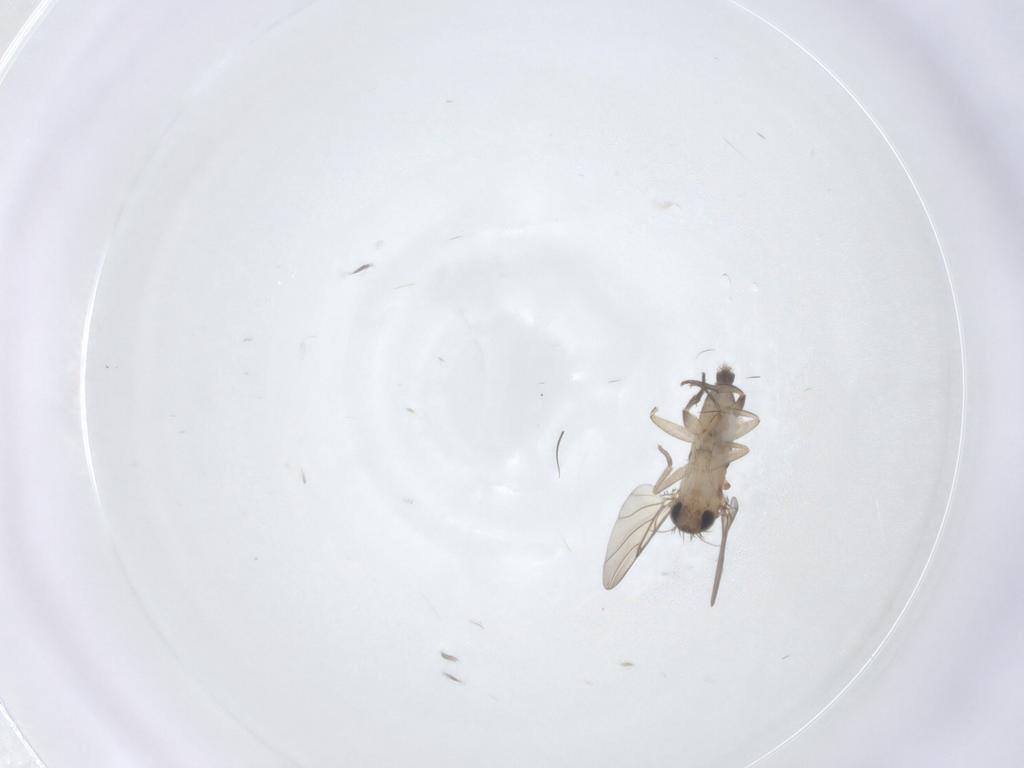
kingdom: Animalia
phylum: Arthropoda
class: Insecta
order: Diptera
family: Phoridae
